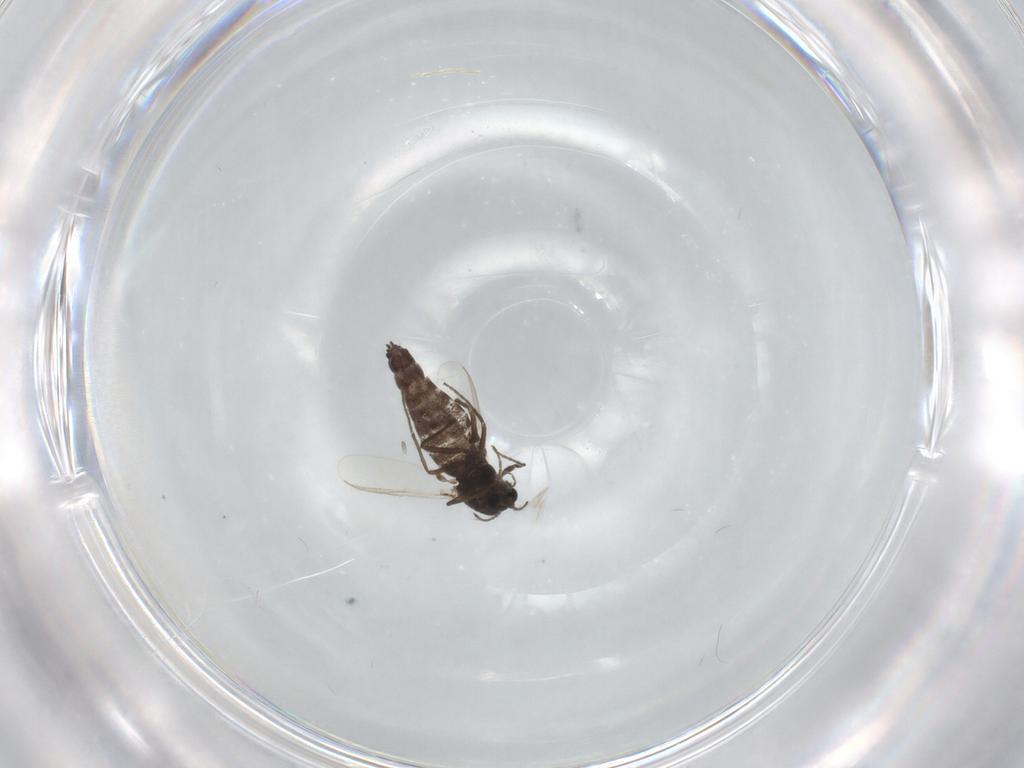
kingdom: Animalia
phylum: Arthropoda
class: Insecta
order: Diptera
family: Chironomidae
